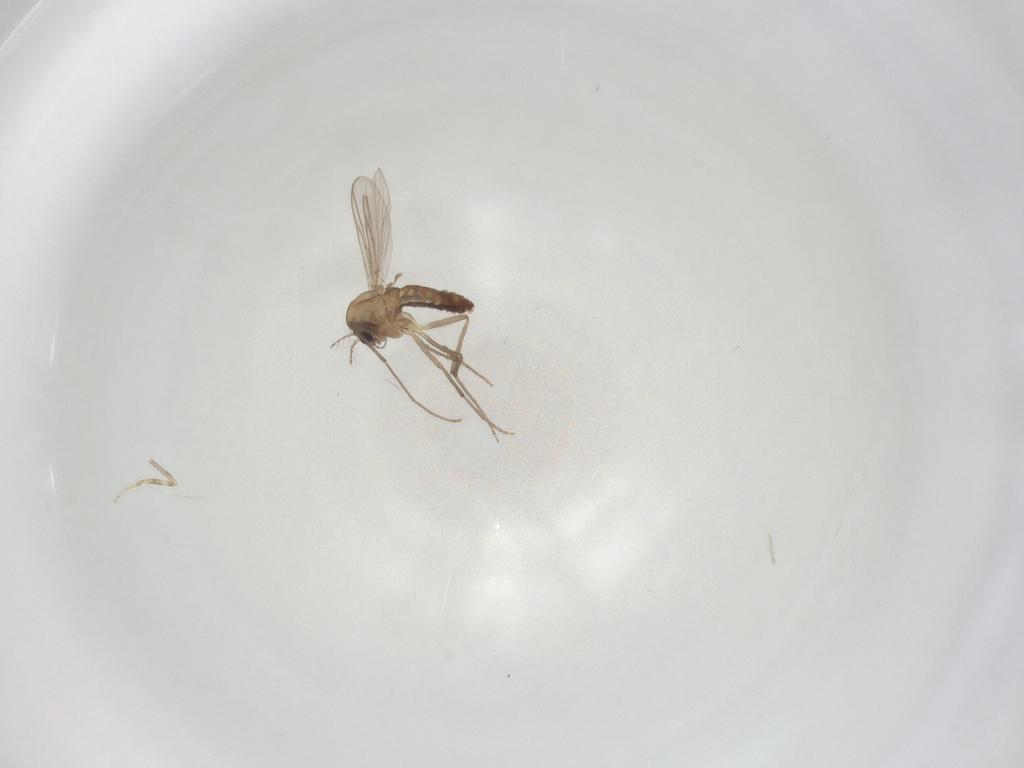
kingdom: Animalia
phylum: Arthropoda
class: Insecta
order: Diptera
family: Chironomidae
